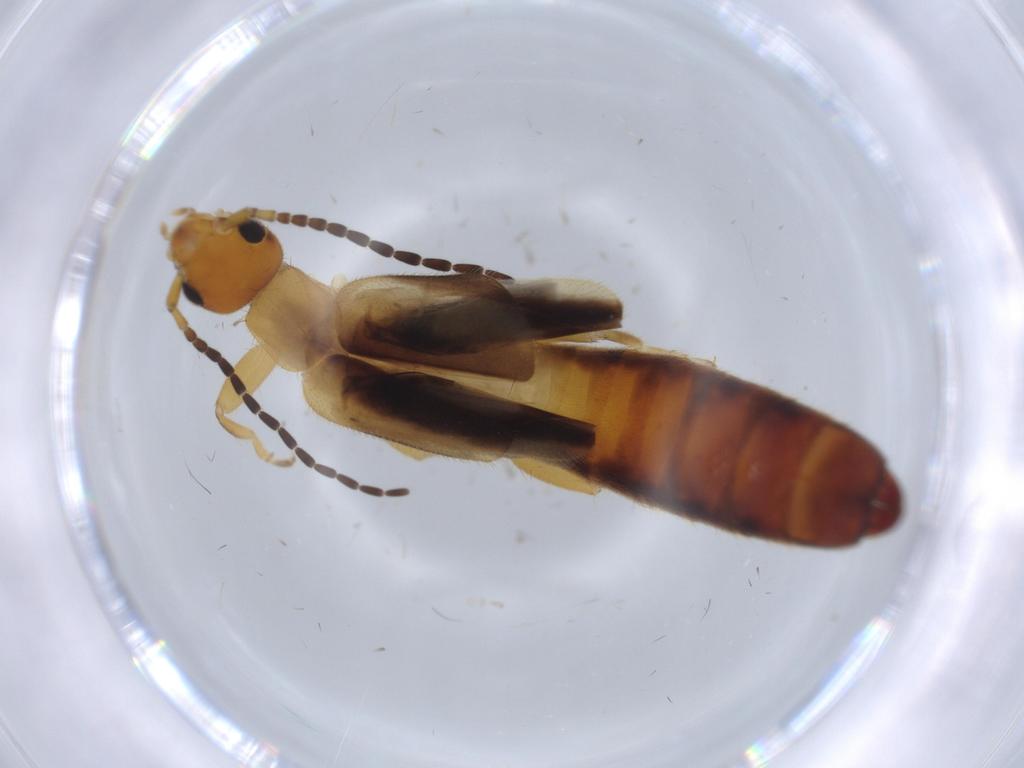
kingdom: Animalia
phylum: Arthropoda
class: Insecta
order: Dermaptera
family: Forficulidae
